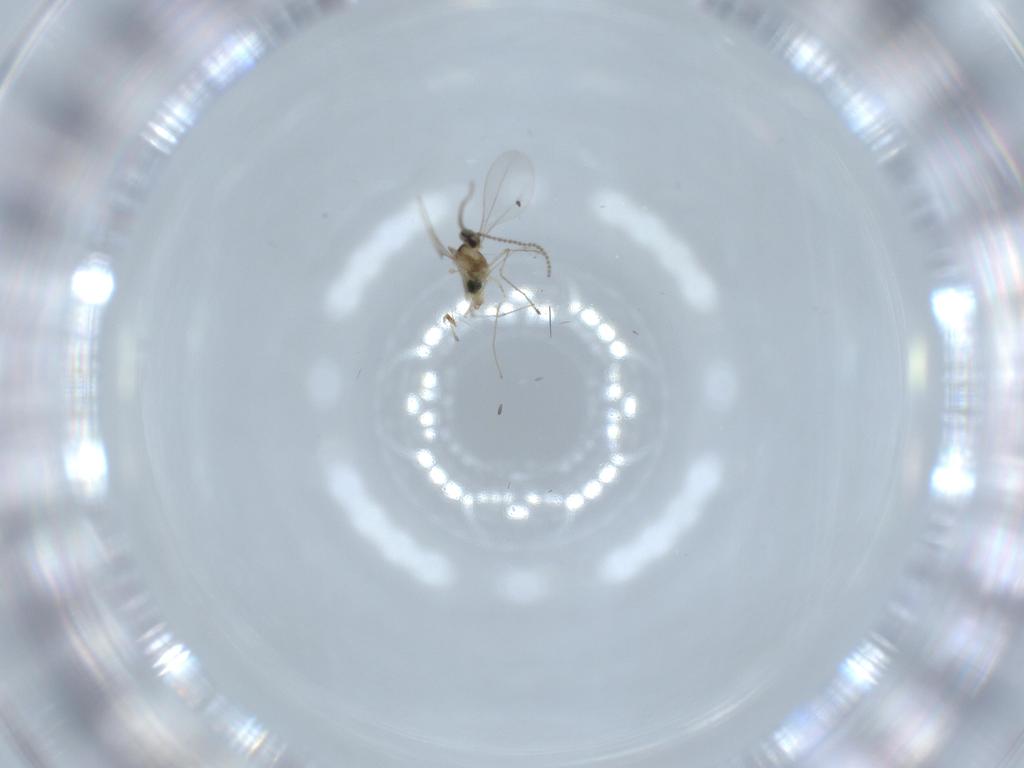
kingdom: Animalia
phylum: Arthropoda
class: Insecta
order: Diptera
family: Cecidomyiidae
